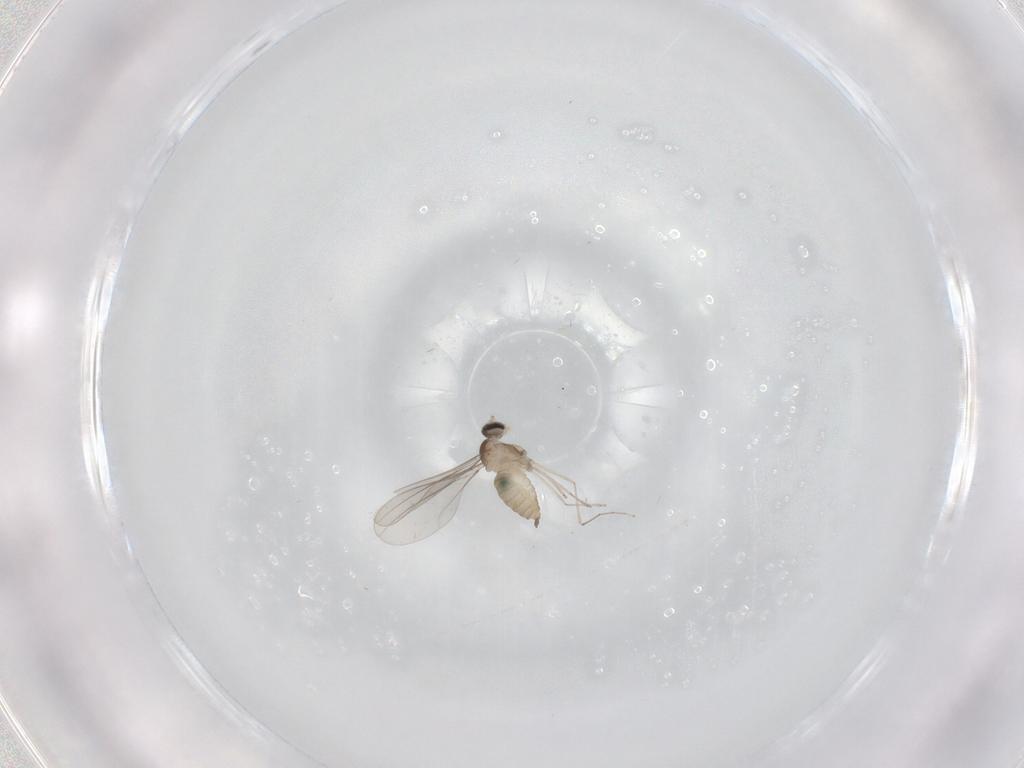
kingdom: Animalia
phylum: Arthropoda
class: Insecta
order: Diptera
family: Cecidomyiidae
